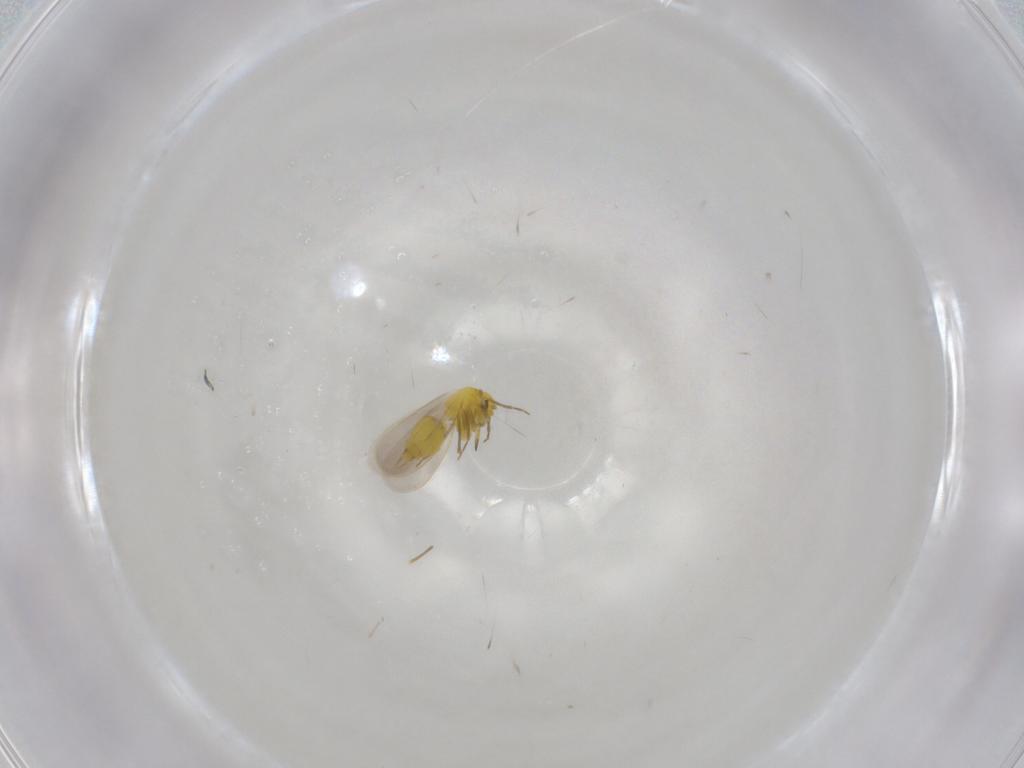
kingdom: Animalia
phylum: Arthropoda
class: Insecta
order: Hemiptera
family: Aleyrodidae
